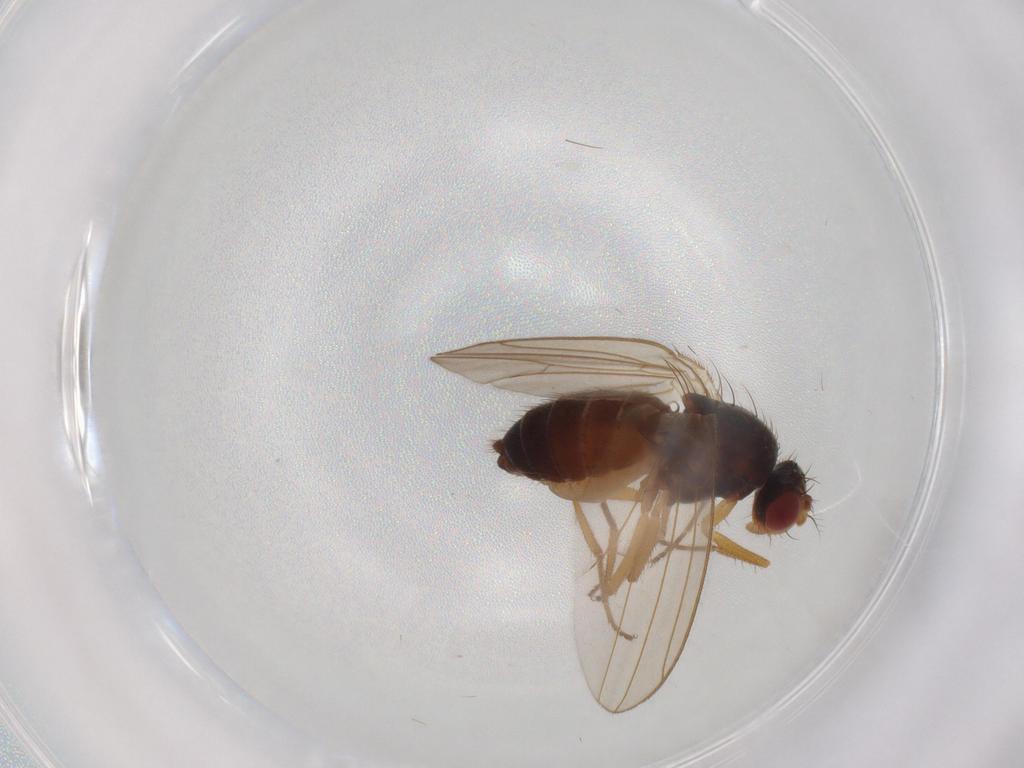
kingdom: Animalia
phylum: Arthropoda
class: Insecta
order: Diptera
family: Drosophilidae
